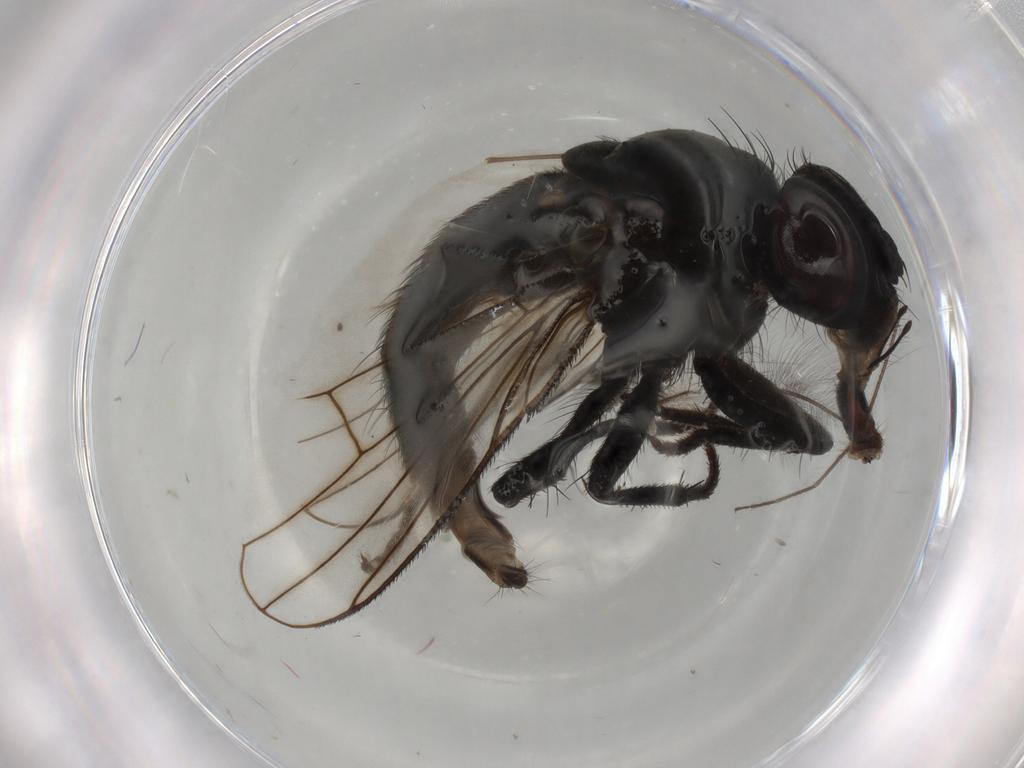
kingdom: Animalia
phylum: Arthropoda
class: Insecta
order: Diptera
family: Muscidae
